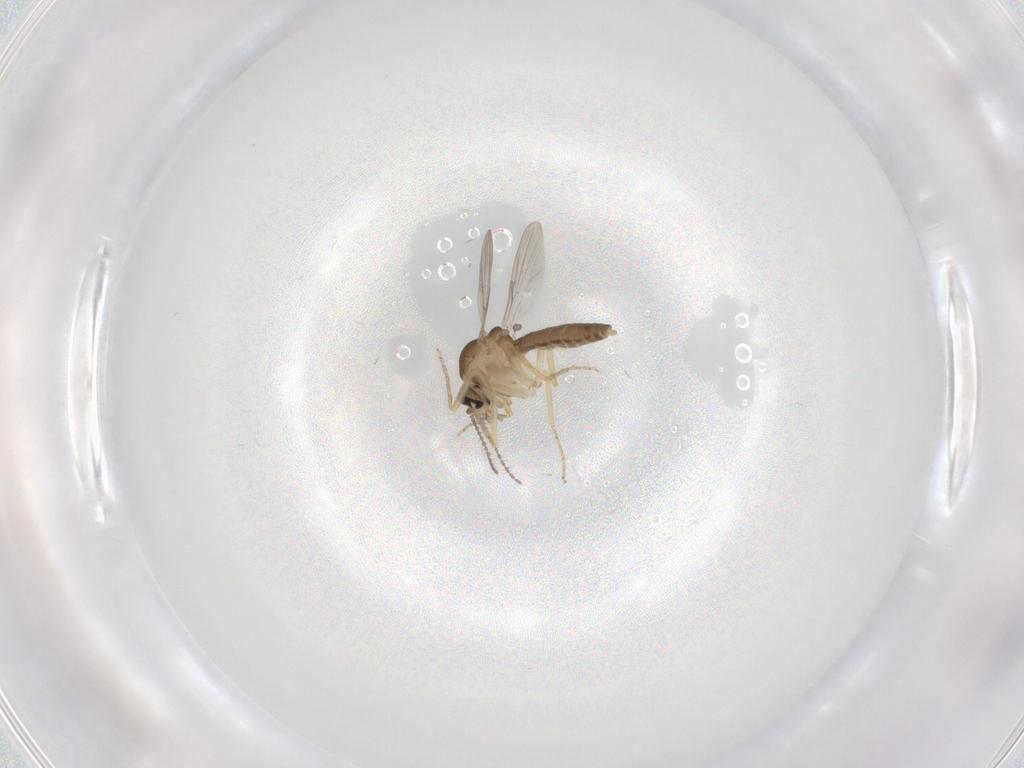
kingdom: Animalia
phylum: Arthropoda
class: Insecta
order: Diptera
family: Ceratopogonidae
